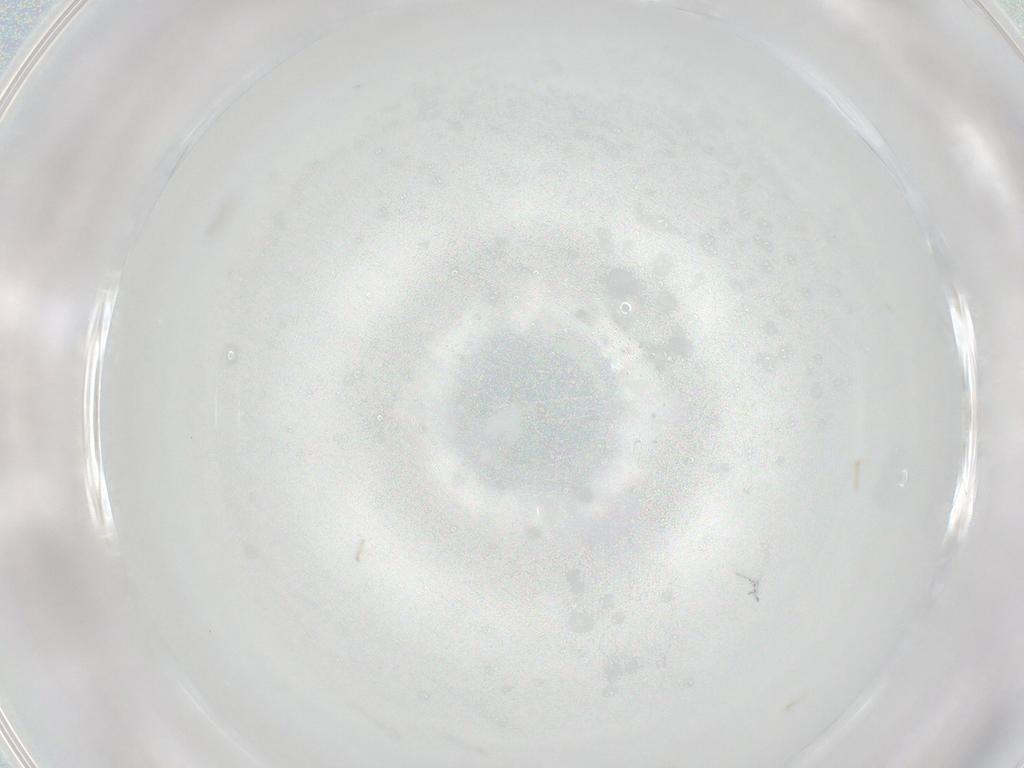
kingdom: Animalia
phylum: Arthropoda
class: Insecta
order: Diptera
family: Cecidomyiidae
